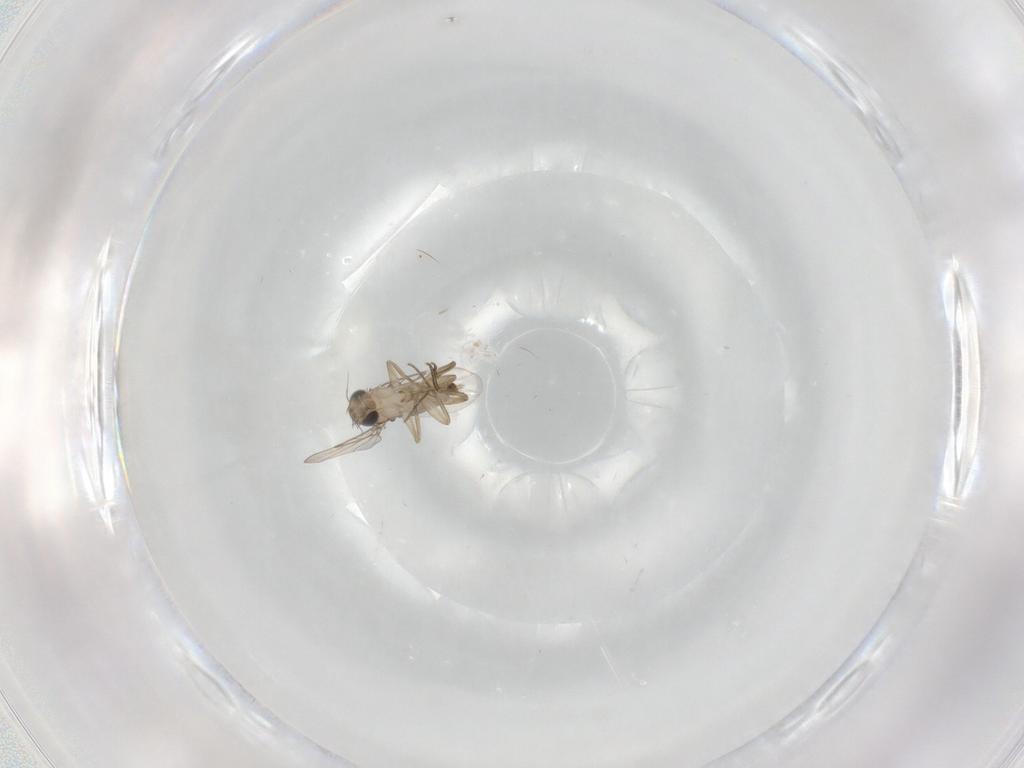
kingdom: Animalia
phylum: Arthropoda
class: Insecta
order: Diptera
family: Phoridae
